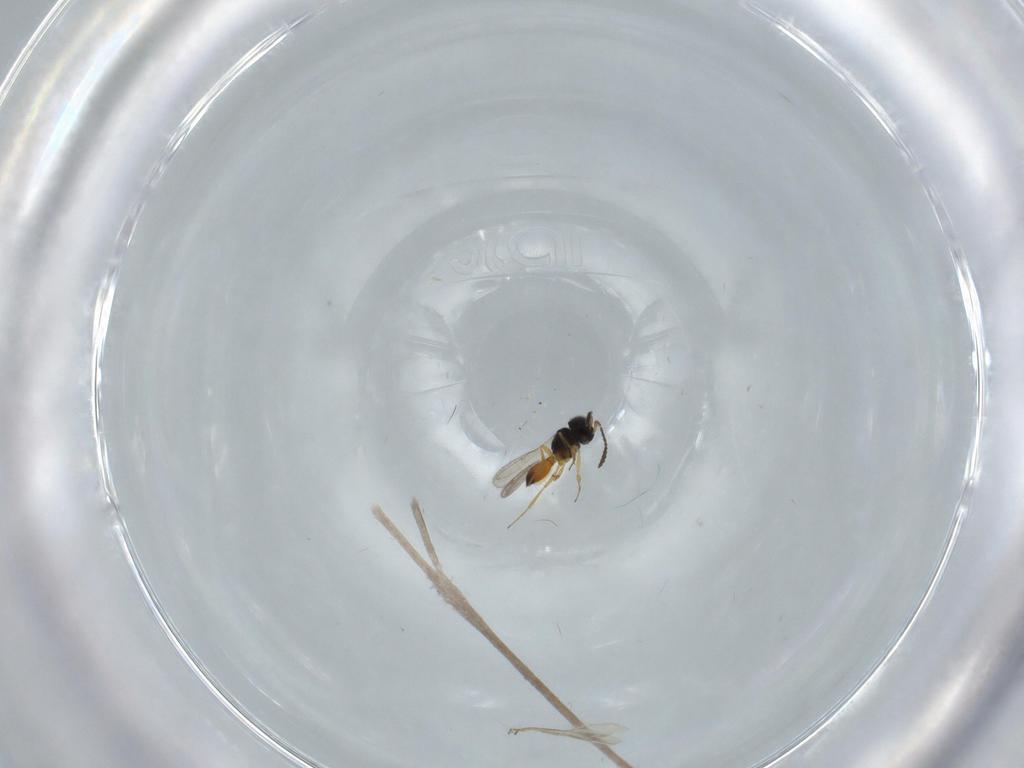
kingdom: Animalia
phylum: Arthropoda
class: Insecta
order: Hymenoptera
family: Scelionidae
